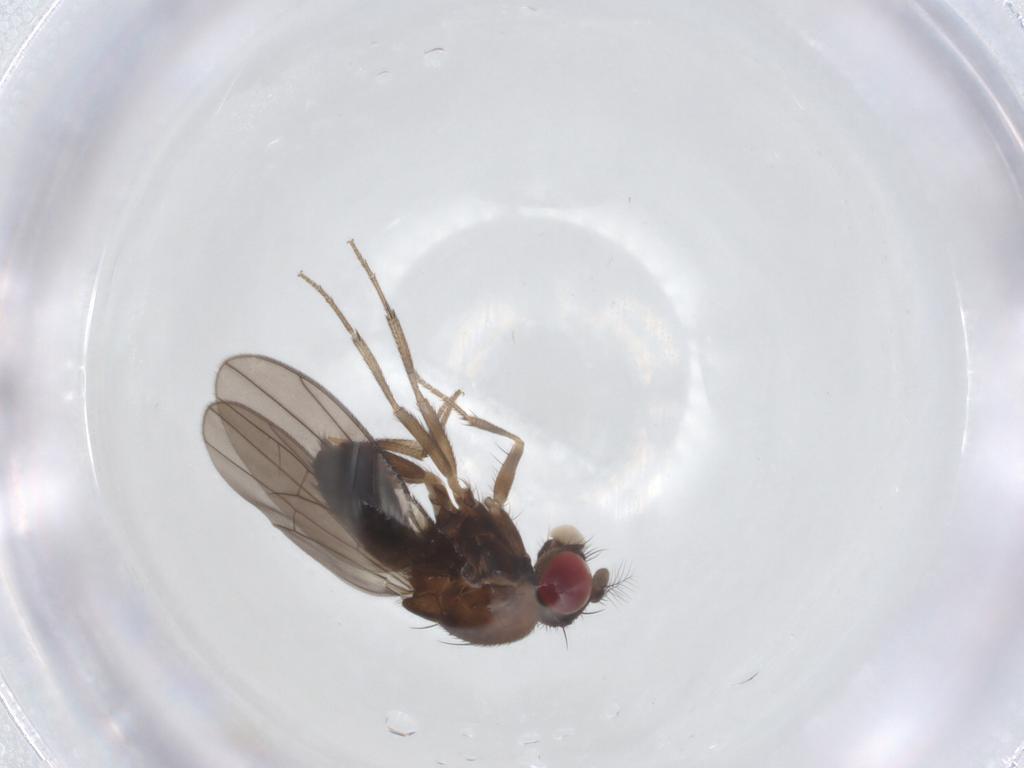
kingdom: Animalia
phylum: Arthropoda
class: Insecta
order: Diptera
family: Drosophilidae
